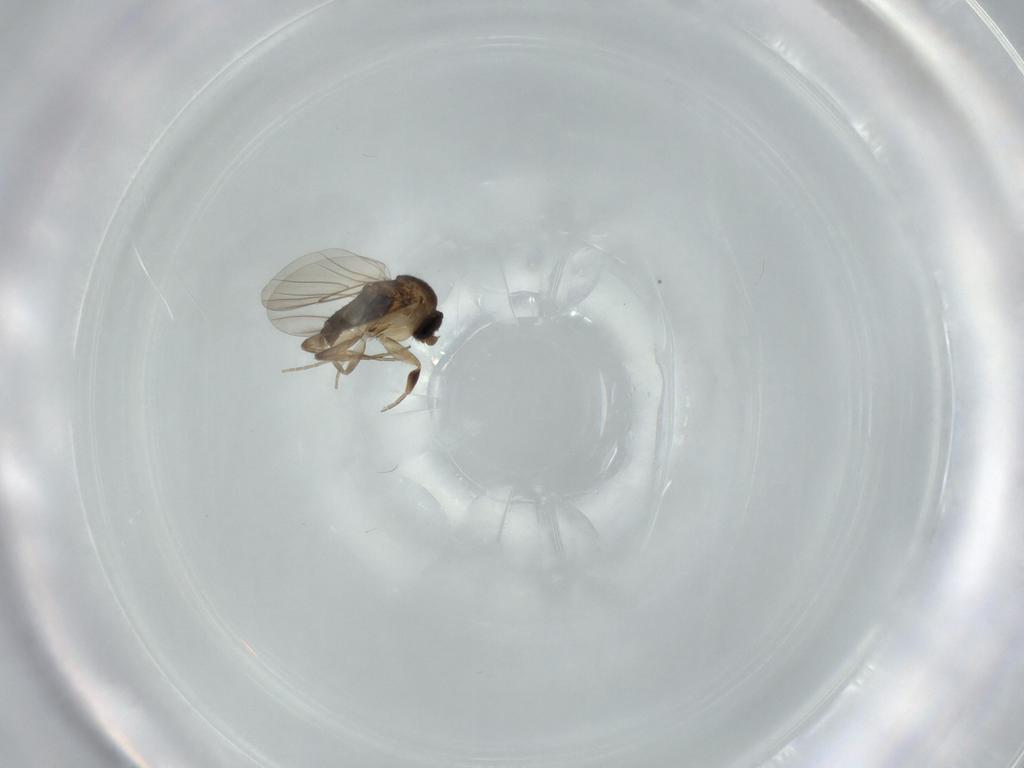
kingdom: Animalia
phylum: Arthropoda
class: Insecta
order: Diptera
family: Phoridae
